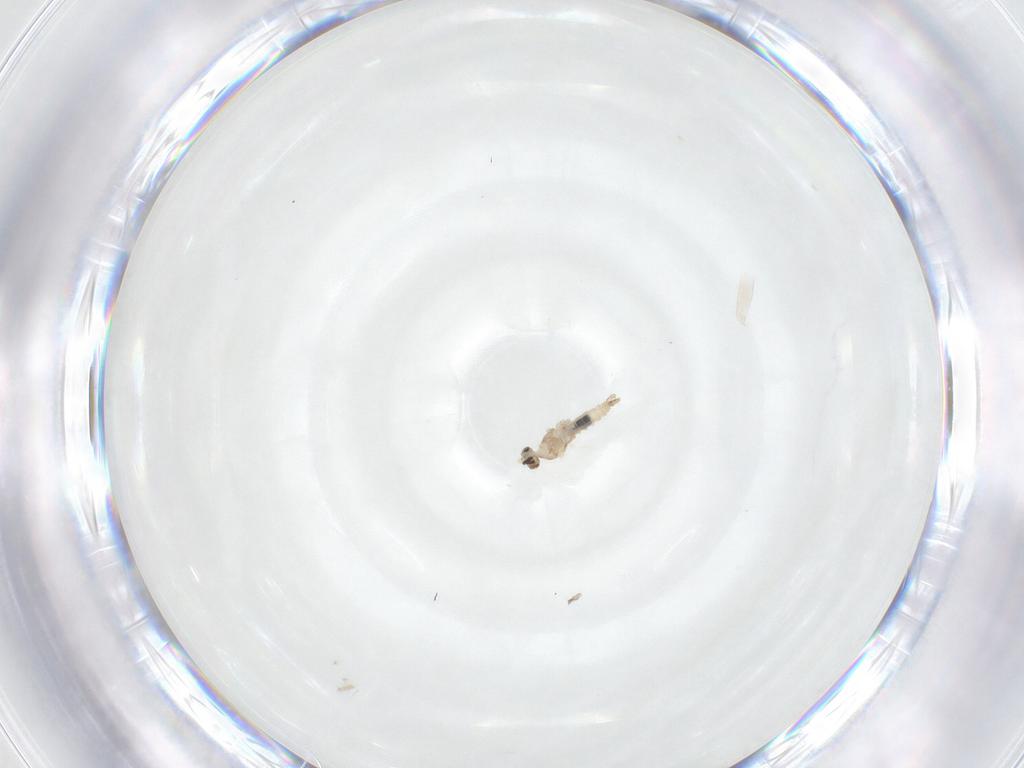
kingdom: Animalia
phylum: Arthropoda
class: Insecta
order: Diptera
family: Cecidomyiidae
